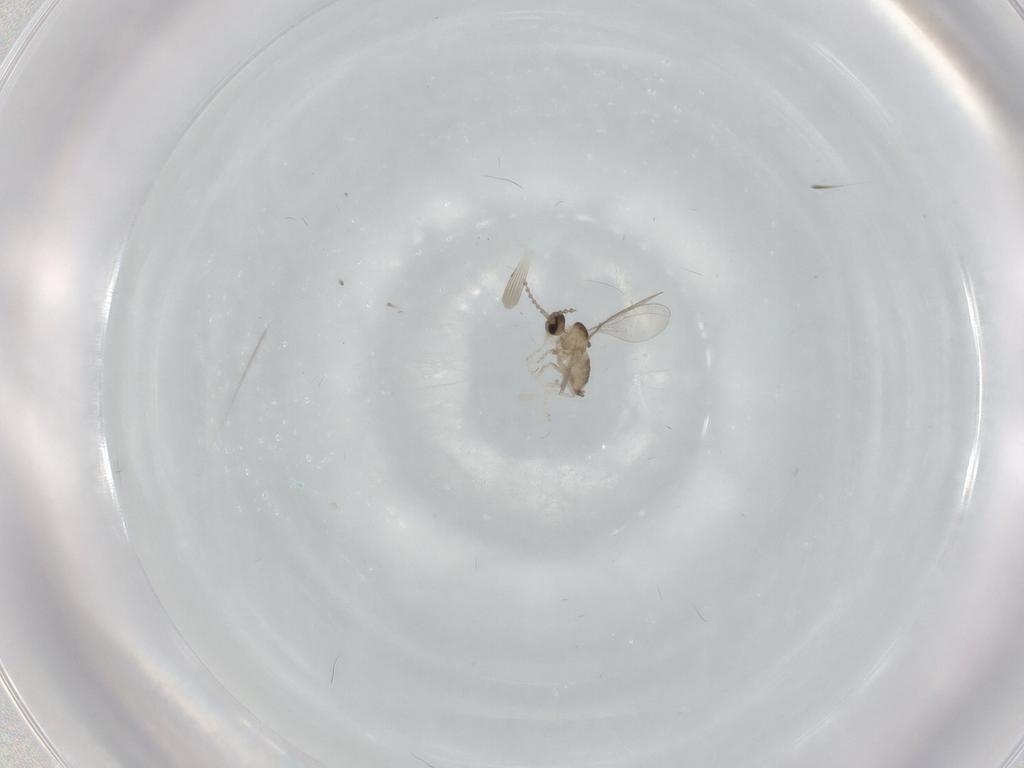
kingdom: Animalia
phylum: Arthropoda
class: Insecta
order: Diptera
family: Cecidomyiidae
